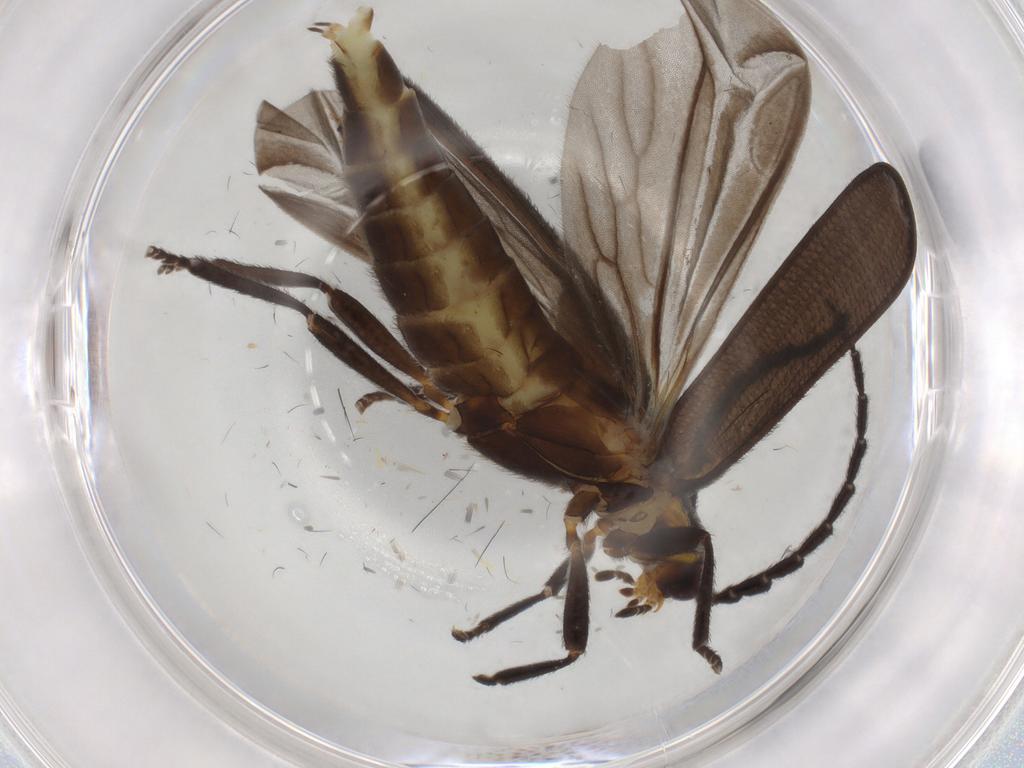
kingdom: Animalia
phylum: Arthropoda
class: Insecta
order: Coleoptera
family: Lycidae
